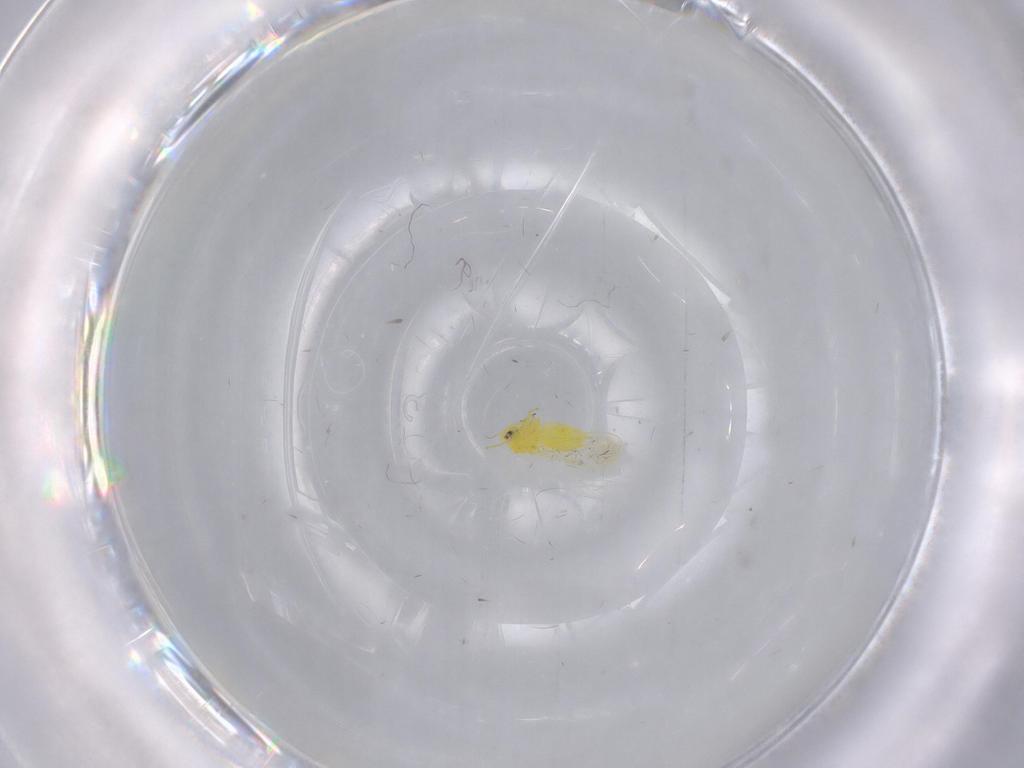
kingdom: Animalia
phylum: Arthropoda
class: Insecta
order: Hemiptera
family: Aleyrodidae
